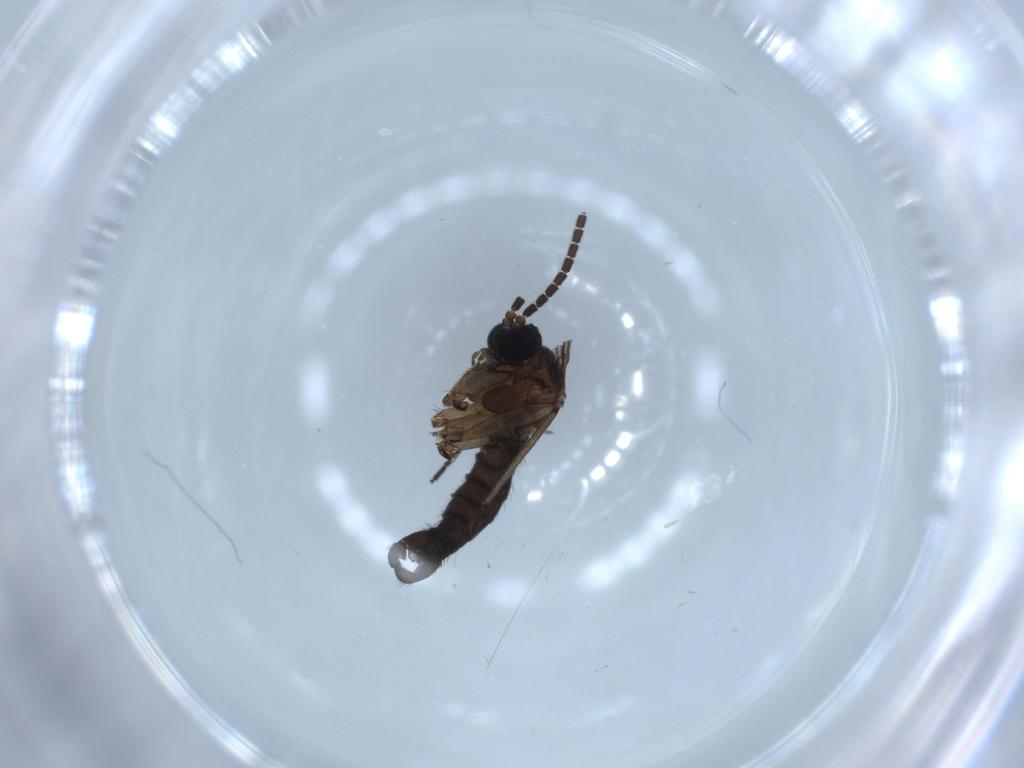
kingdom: Animalia
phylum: Arthropoda
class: Insecta
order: Diptera
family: Sciaridae
